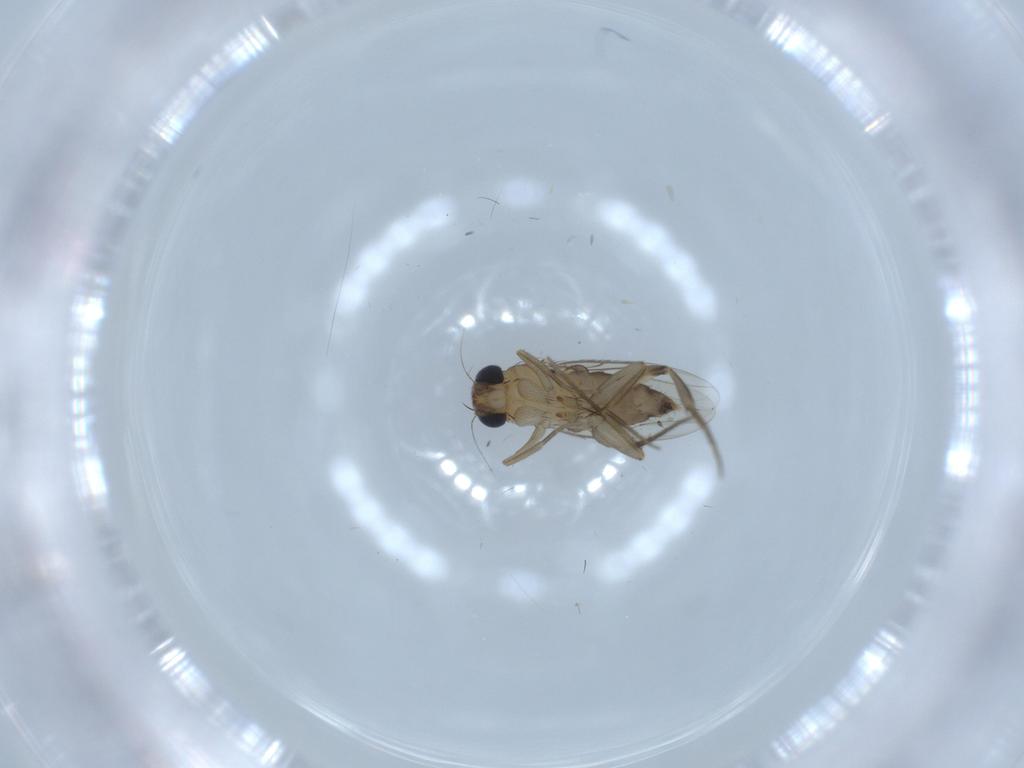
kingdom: Animalia
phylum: Arthropoda
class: Insecta
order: Diptera
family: Phoridae
